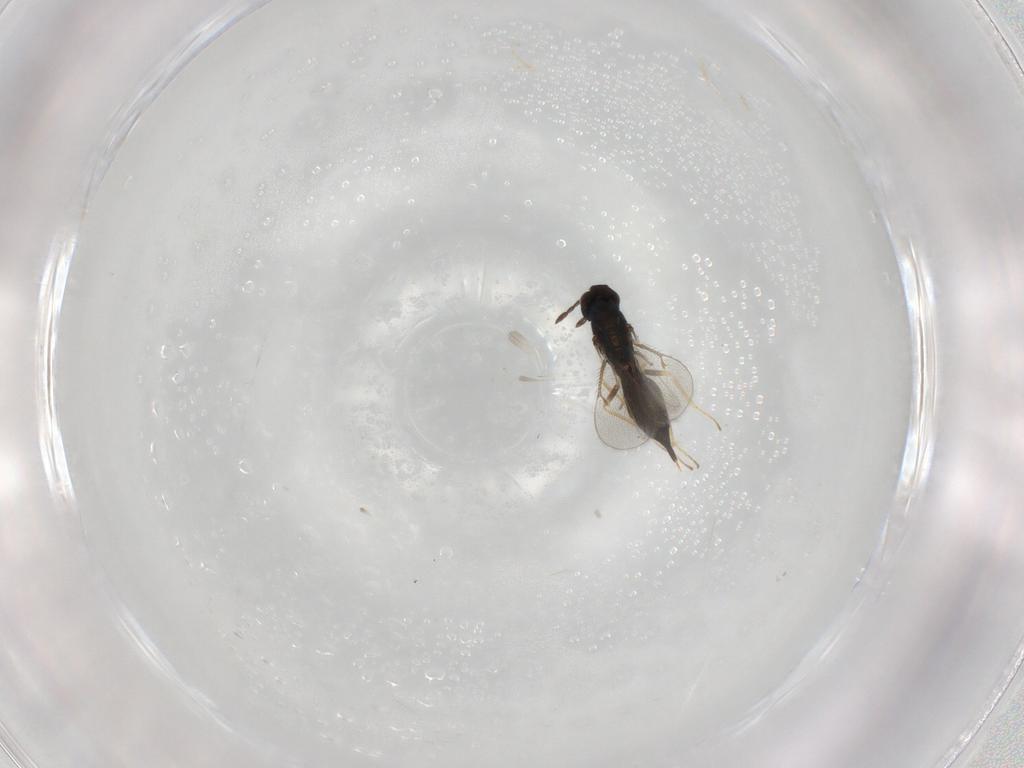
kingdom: Animalia
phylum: Arthropoda
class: Insecta
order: Hymenoptera
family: Eulophidae
